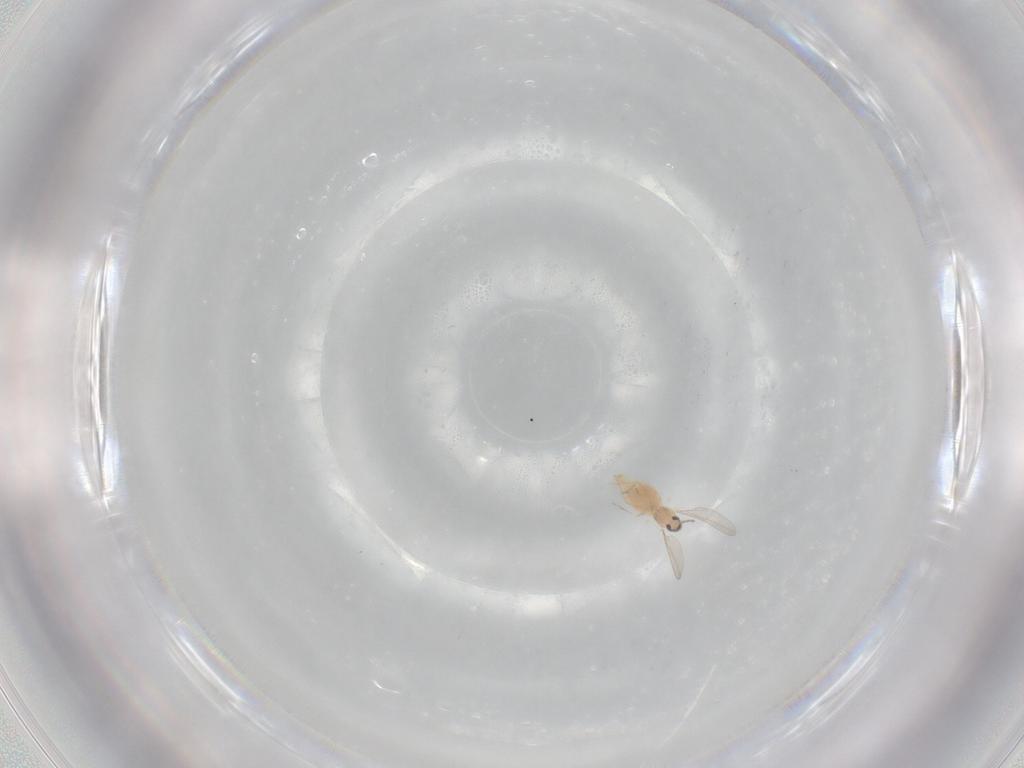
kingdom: Animalia
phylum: Arthropoda
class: Insecta
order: Diptera
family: Cecidomyiidae
